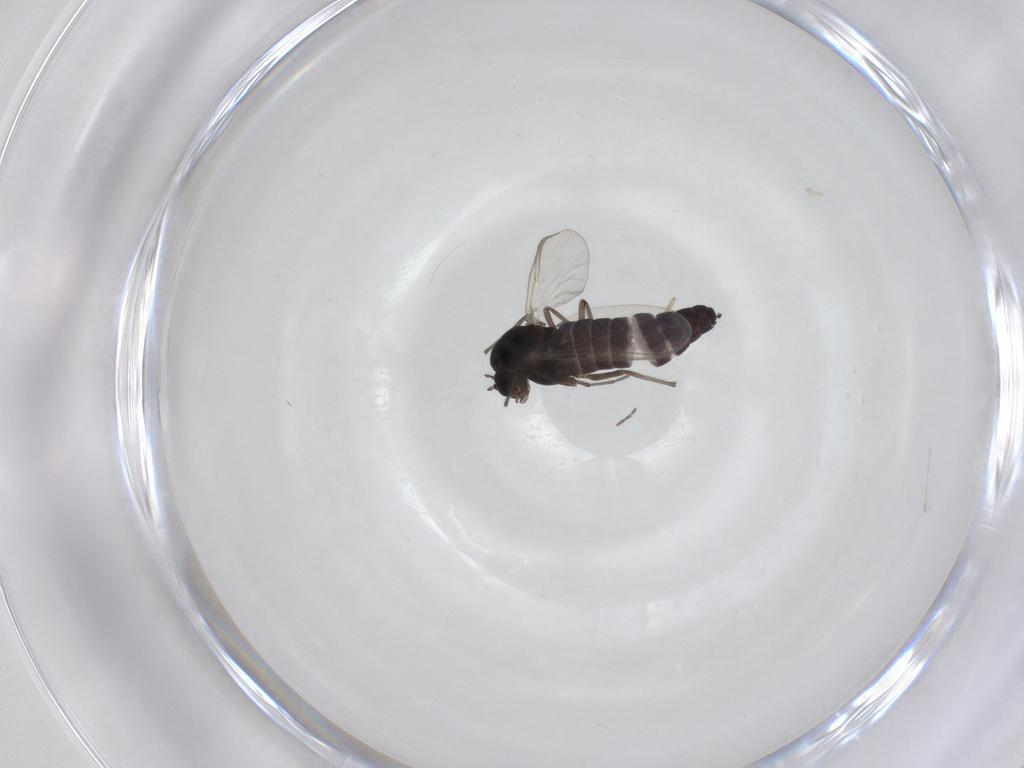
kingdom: Animalia
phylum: Arthropoda
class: Insecta
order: Diptera
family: Chironomidae
